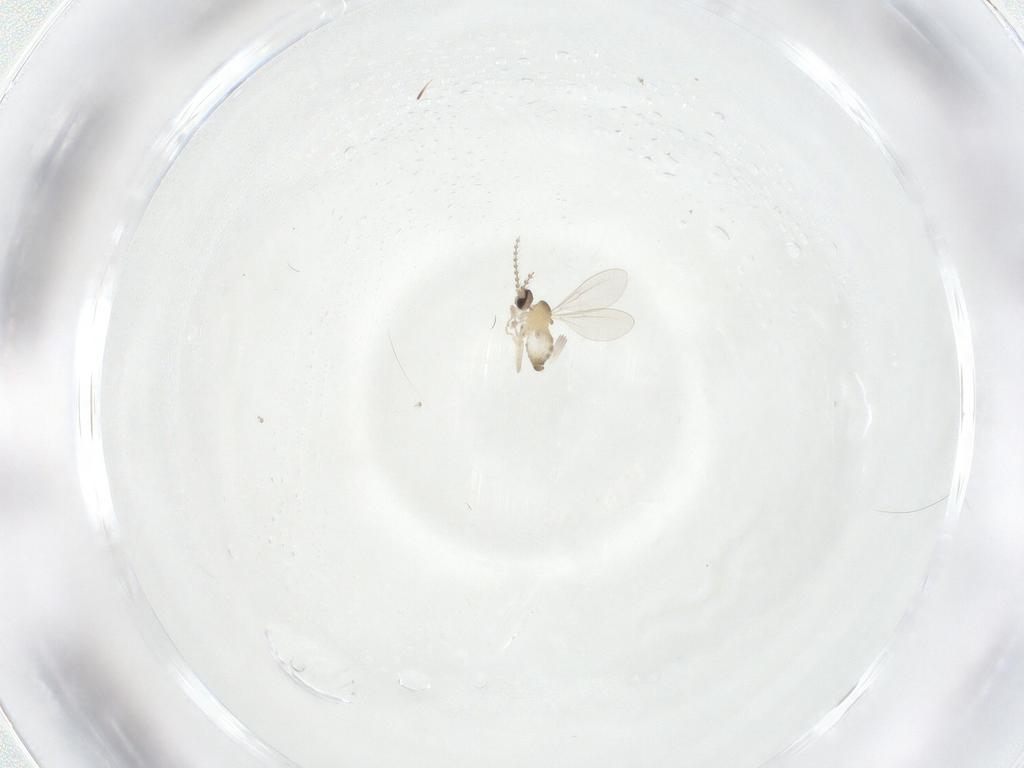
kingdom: Animalia
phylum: Arthropoda
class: Insecta
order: Diptera
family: Cecidomyiidae
